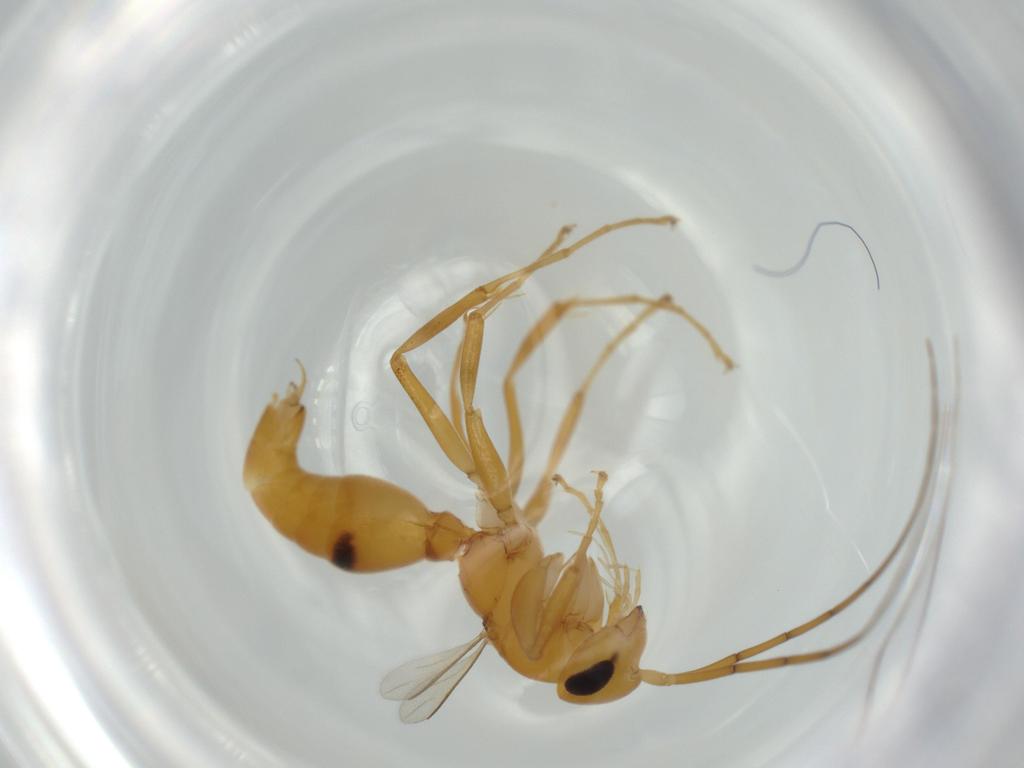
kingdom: Animalia
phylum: Arthropoda
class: Insecta
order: Hymenoptera
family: Rhopalosomatidae
